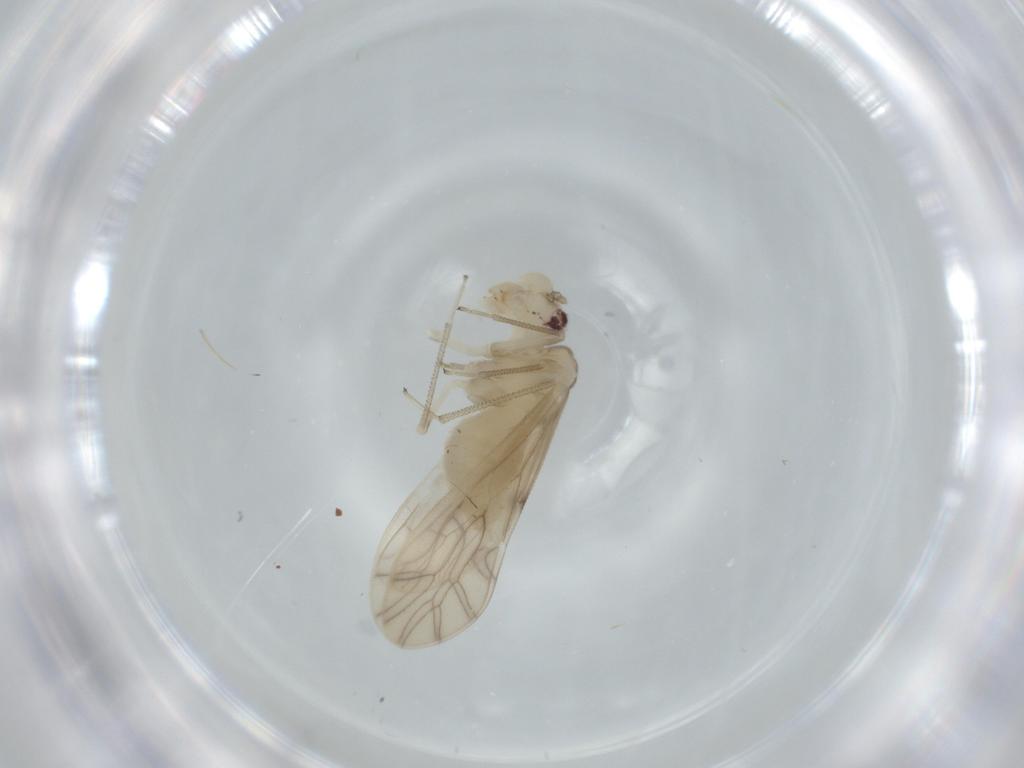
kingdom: Animalia
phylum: Arthropoda
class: Insecta
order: Psocodea
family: Caeciliusidae
